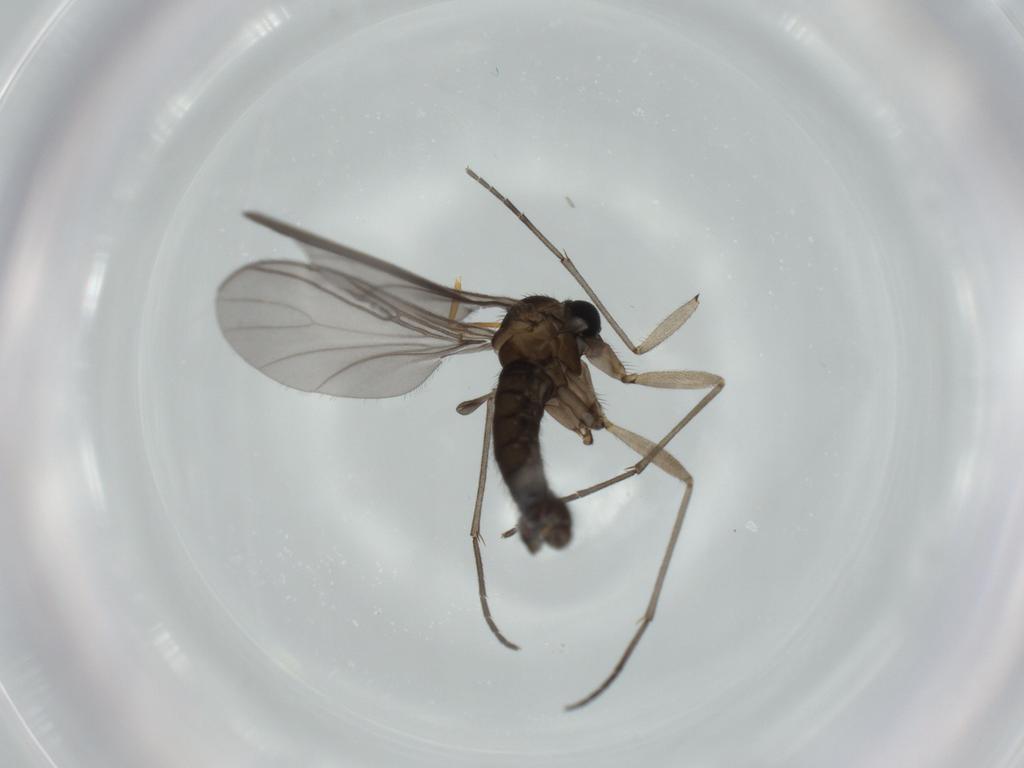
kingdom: Animalia
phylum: Arthropoda
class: Insecta
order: Diptera
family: Sciaridae
